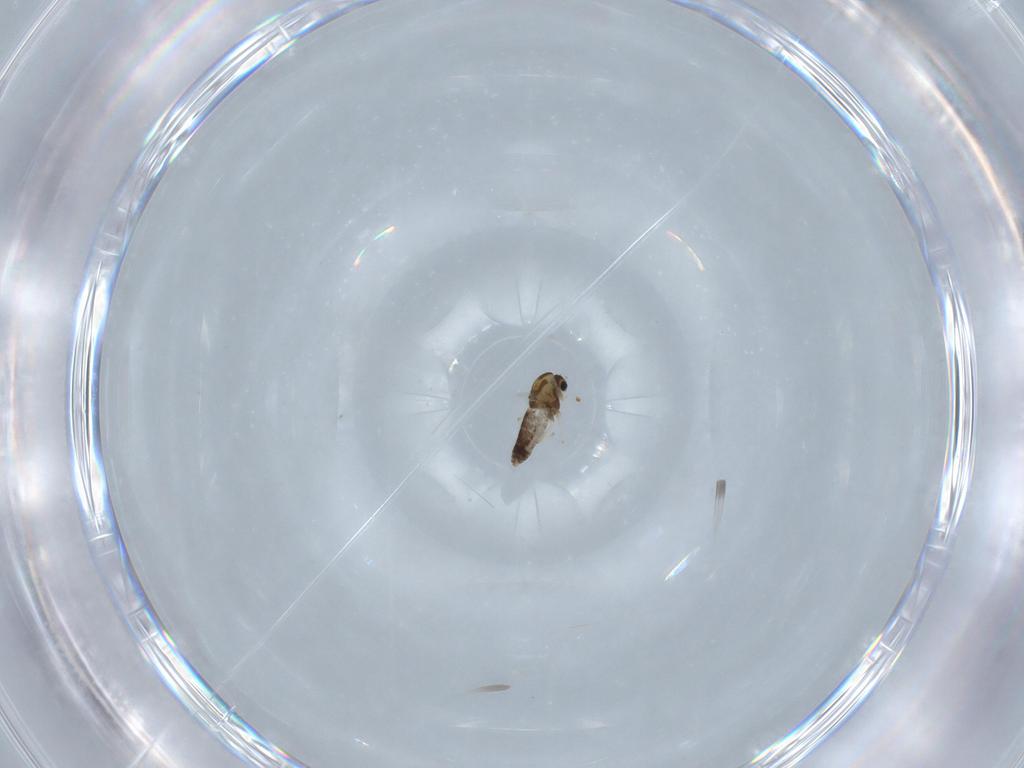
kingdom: Animalia
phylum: Arthropoda
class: Insecta
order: Diptera
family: Chironomidae
